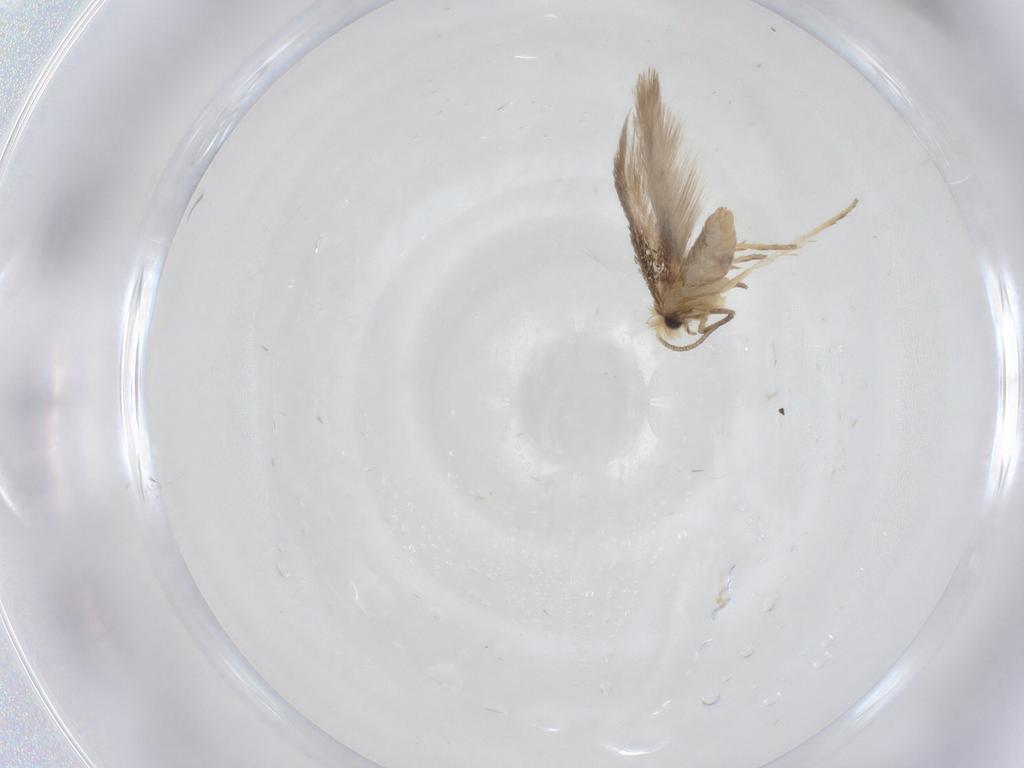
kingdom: Animalia
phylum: Arthropoda
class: Insecta
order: Lepidoptera
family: Nepticulidae
